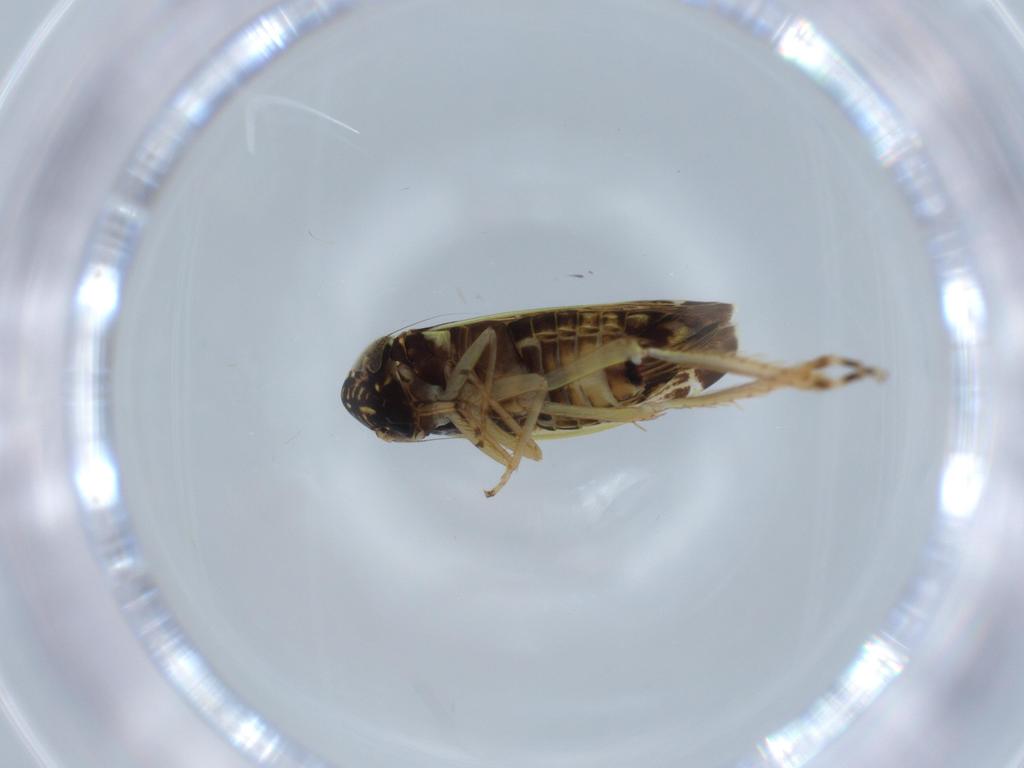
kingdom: Animalia
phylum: Arthropoda
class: Insecta
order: Hemiptera
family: Cicadellidae
